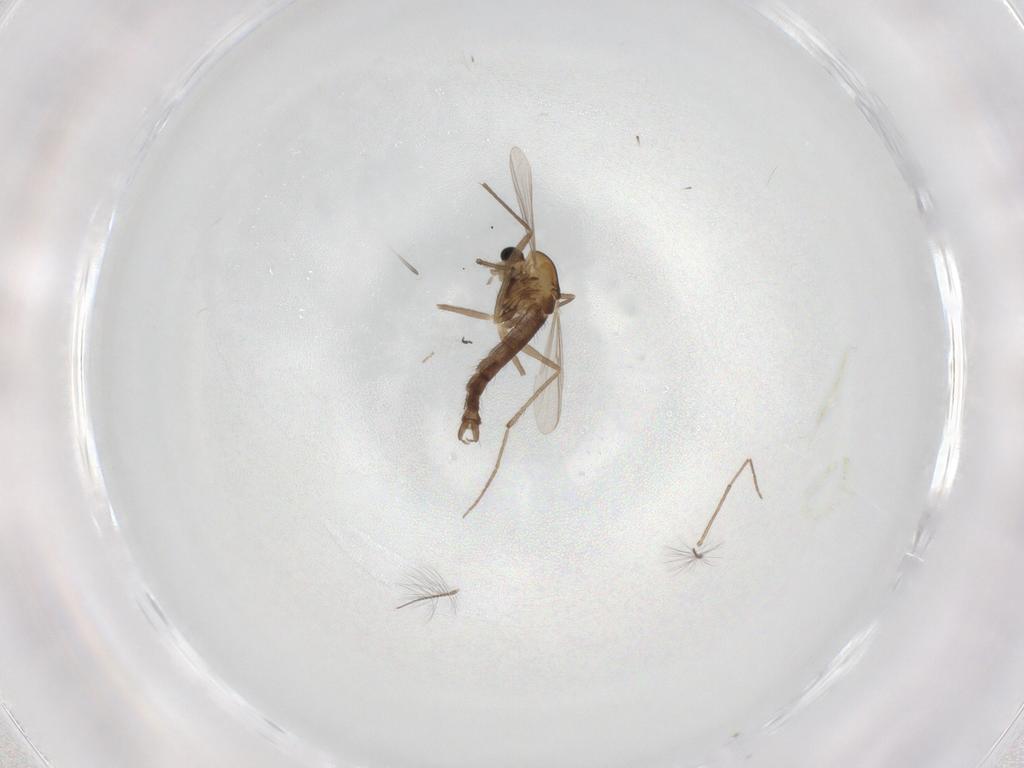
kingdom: Animalia
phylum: Arthropoda
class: Insecta
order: Diptera
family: Chironomidae
